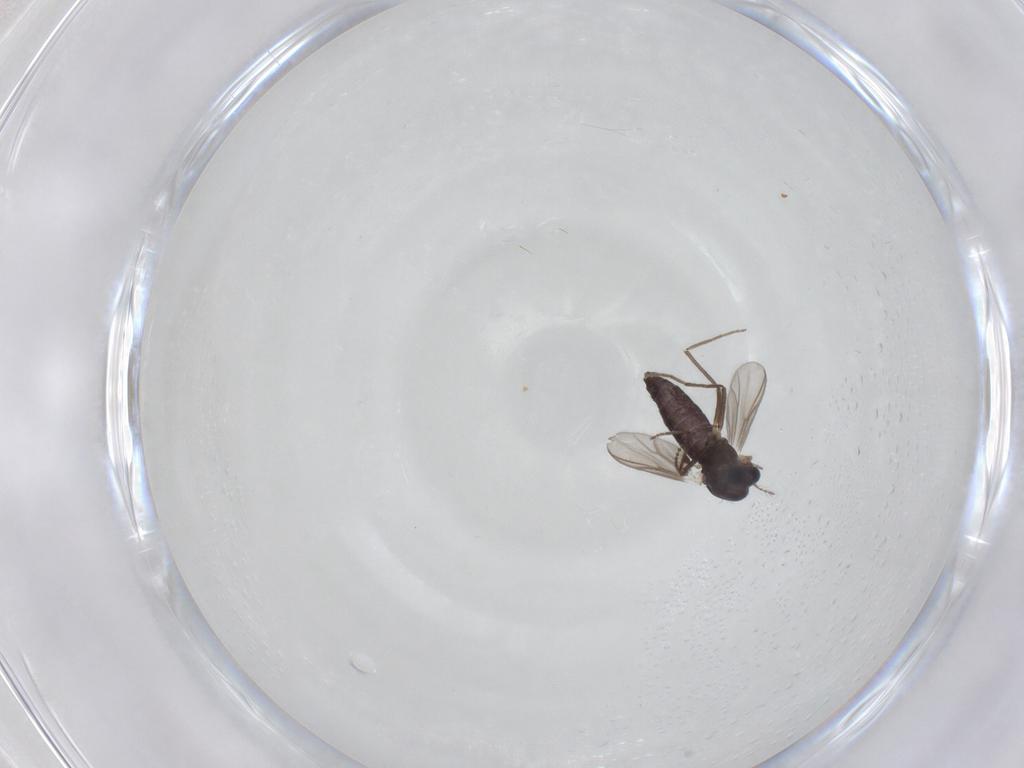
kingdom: Animalia
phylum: Arthropoda
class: Insecta
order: Diptera
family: Chironomidae
